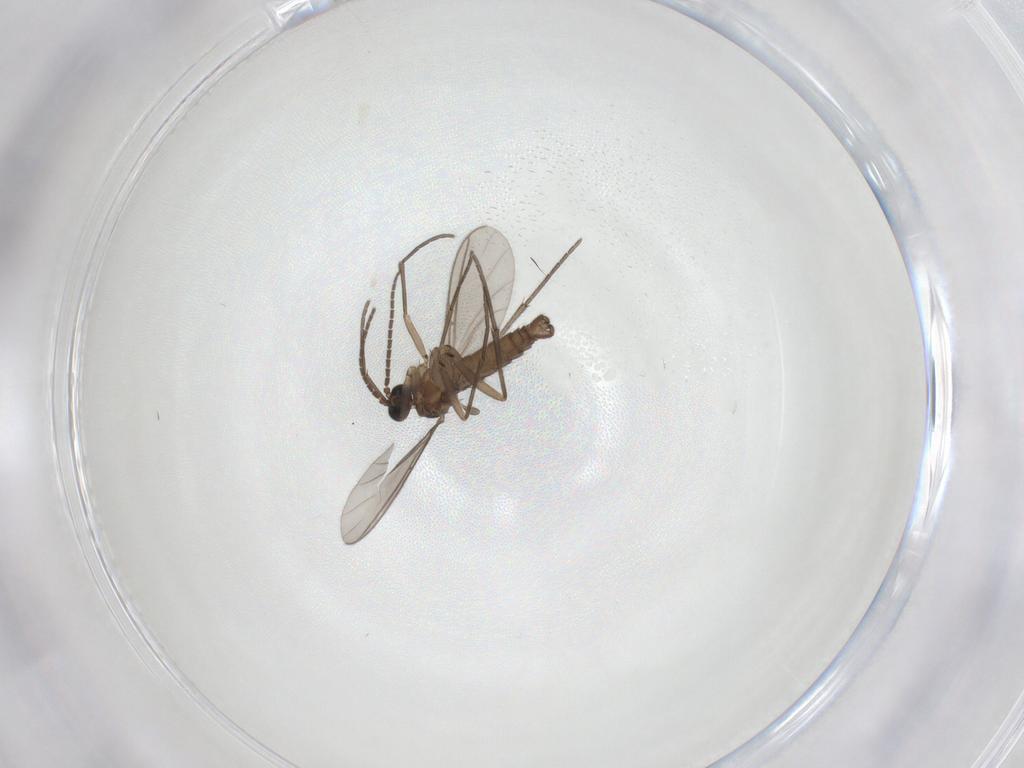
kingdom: Animalia
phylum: Arthropoda
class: Insecta
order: Diptera
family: Sciaridae
